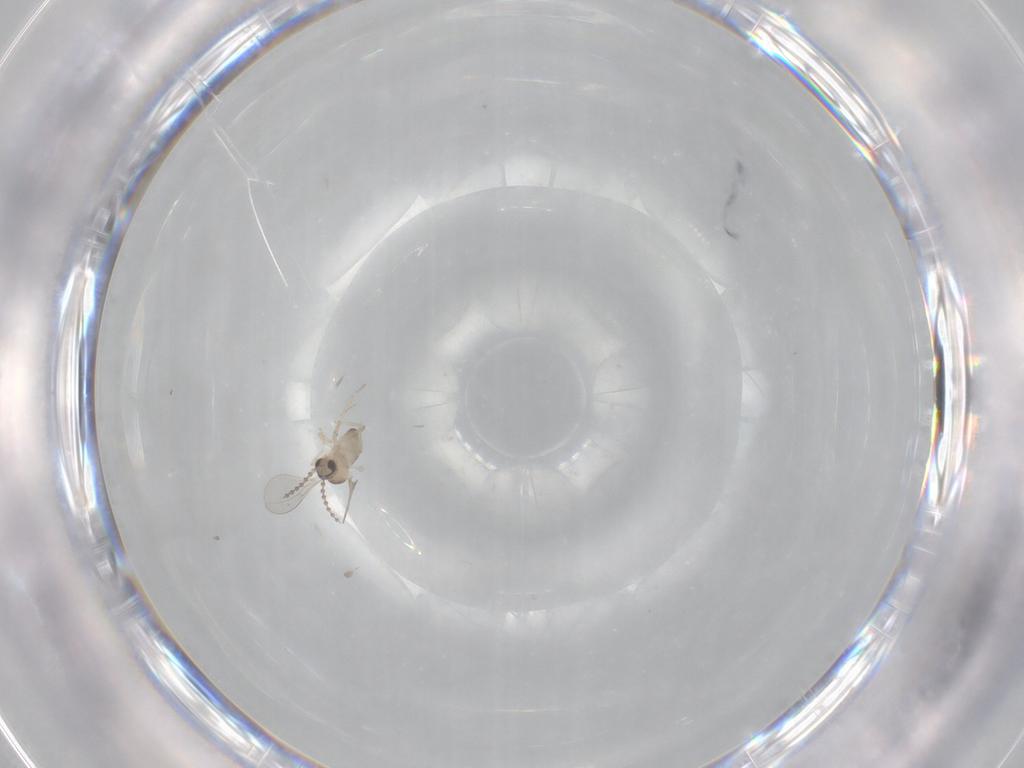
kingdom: Animalia
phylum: Arthropoda
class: Insecta
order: Diptera
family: Cecidomyiidae
